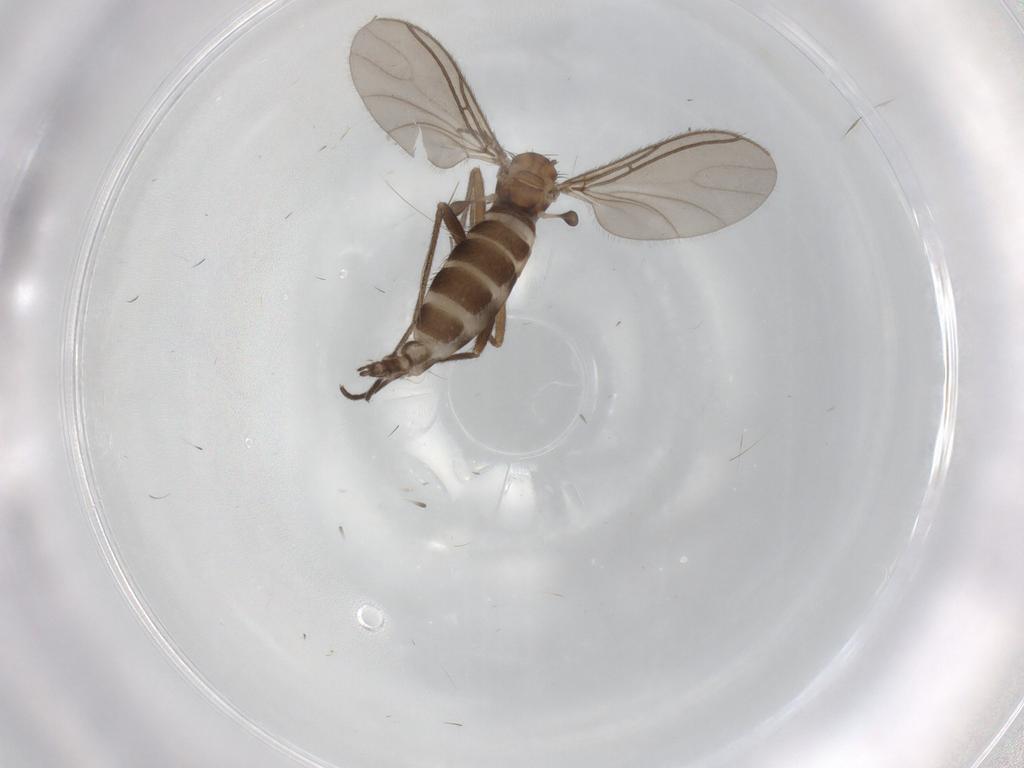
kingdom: Animalia
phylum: Arthropoda
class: Insecta
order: Diptera
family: Sciaridae
